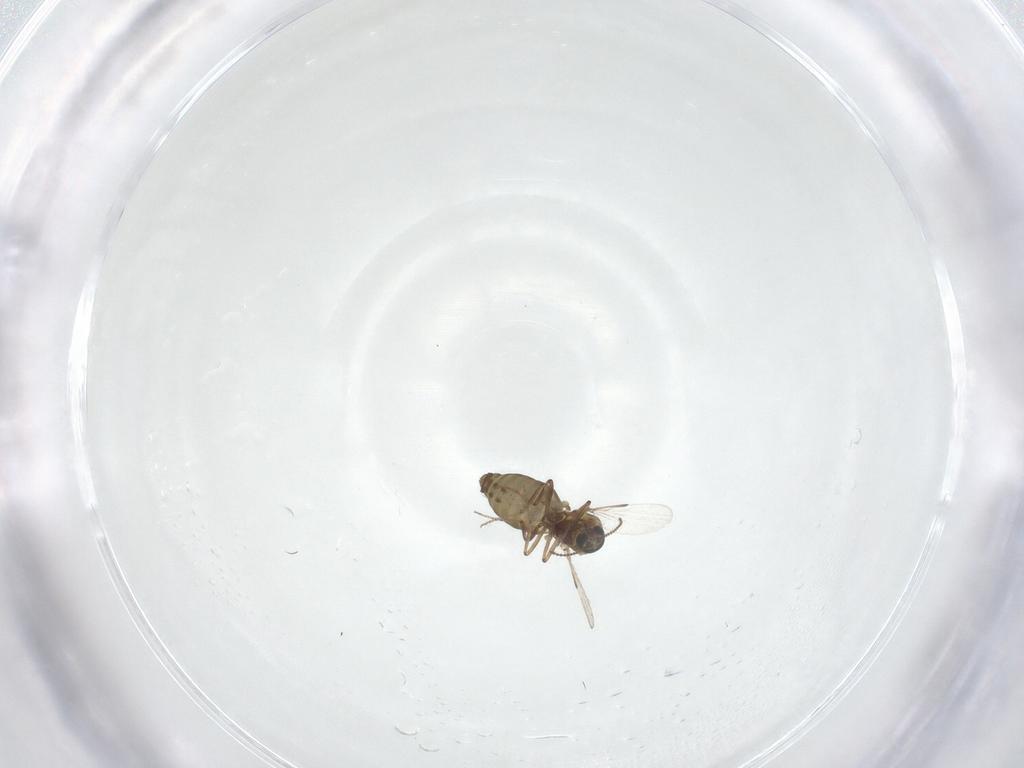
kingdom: Animalia
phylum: Arthropoda
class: Insecta
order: Diptera
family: Ceratopogonidae
